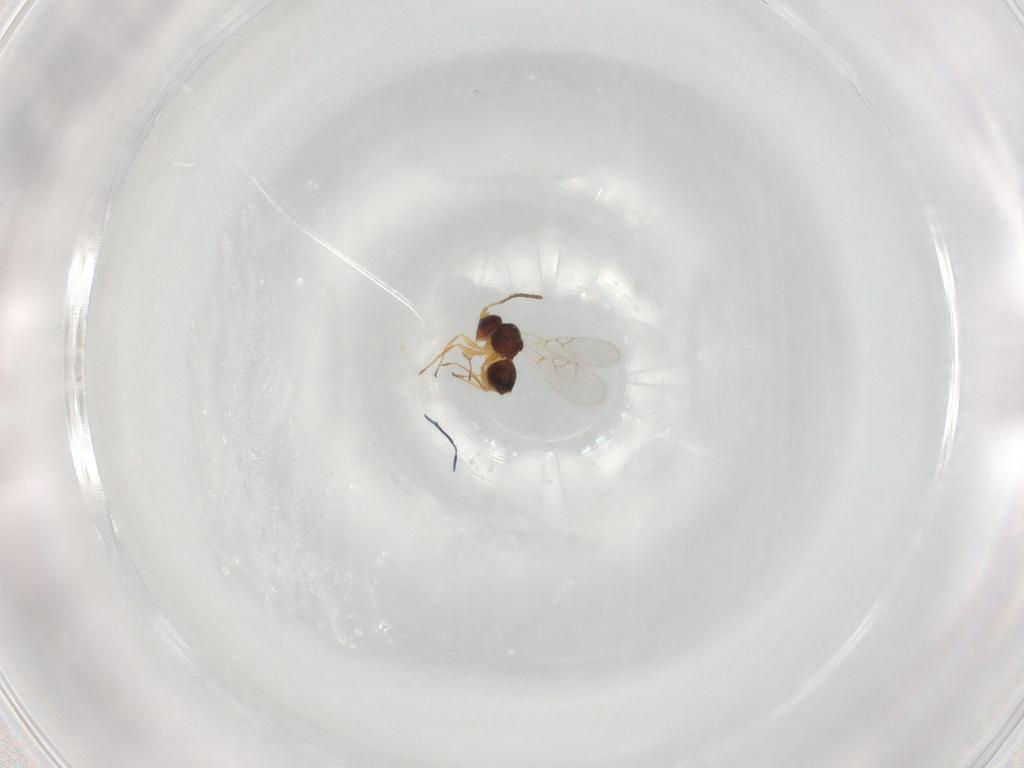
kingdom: Animalia
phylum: Arthropoda
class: Insecta
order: Hymenoptera
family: Figitidae
